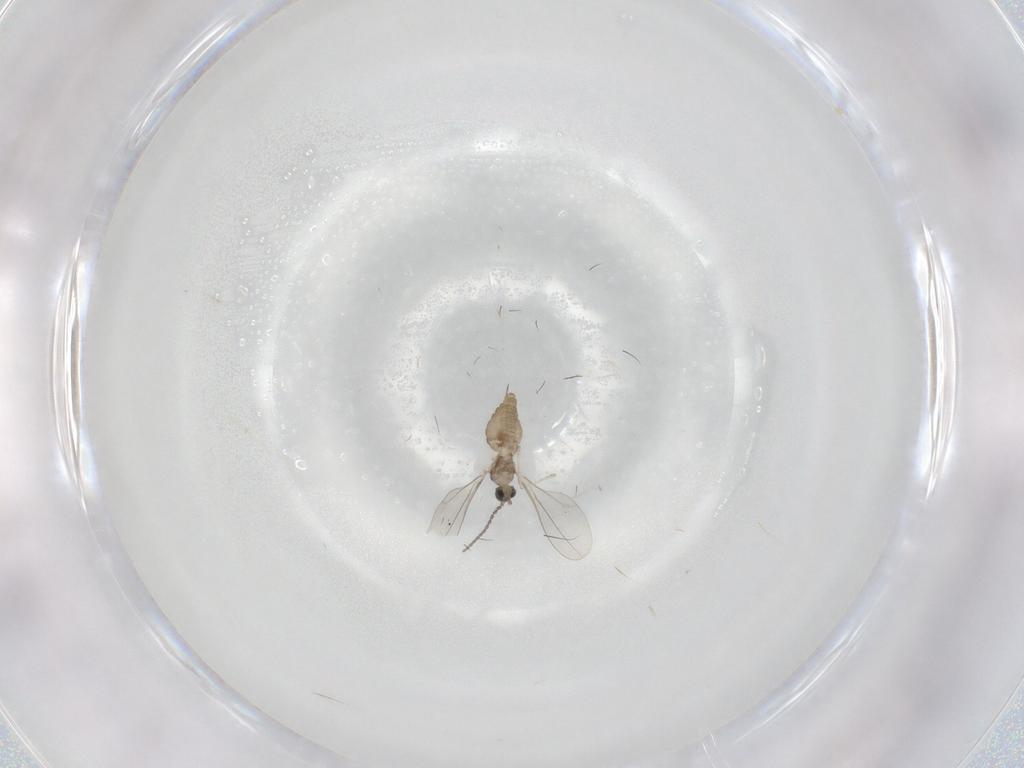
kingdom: Animalia
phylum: Arthropoda
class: Insecta
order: Diptera
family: Cecidomyiidae
